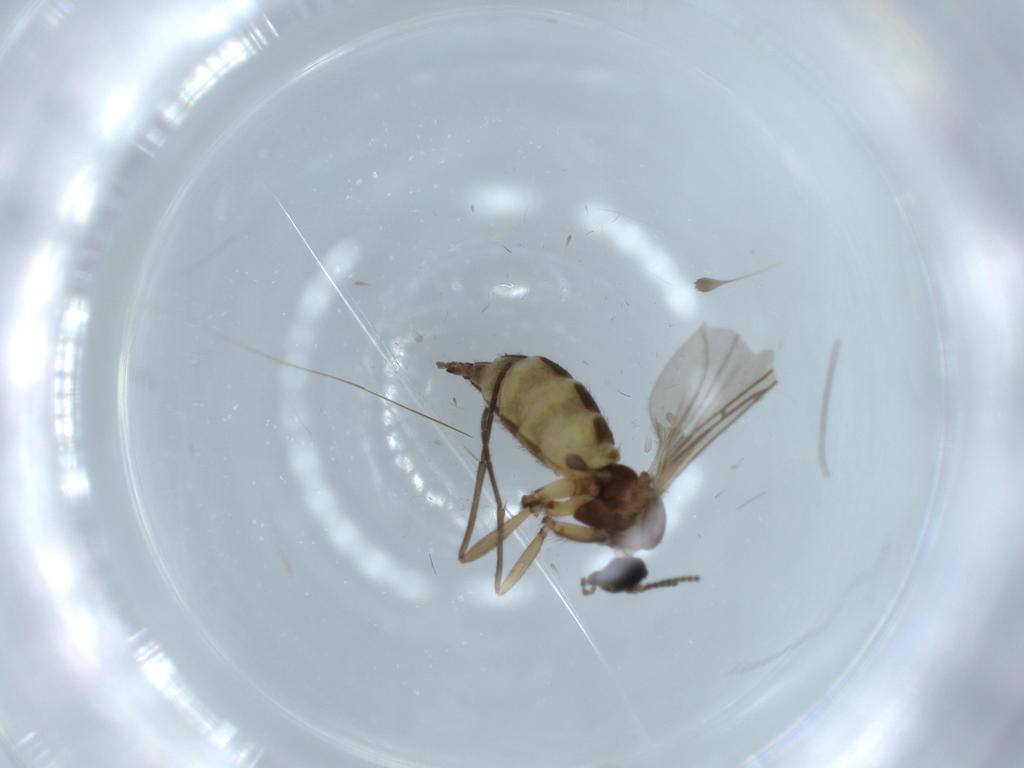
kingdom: Animalia
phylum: Arthropoda
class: Insecta
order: Diptera
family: Sciaridae
